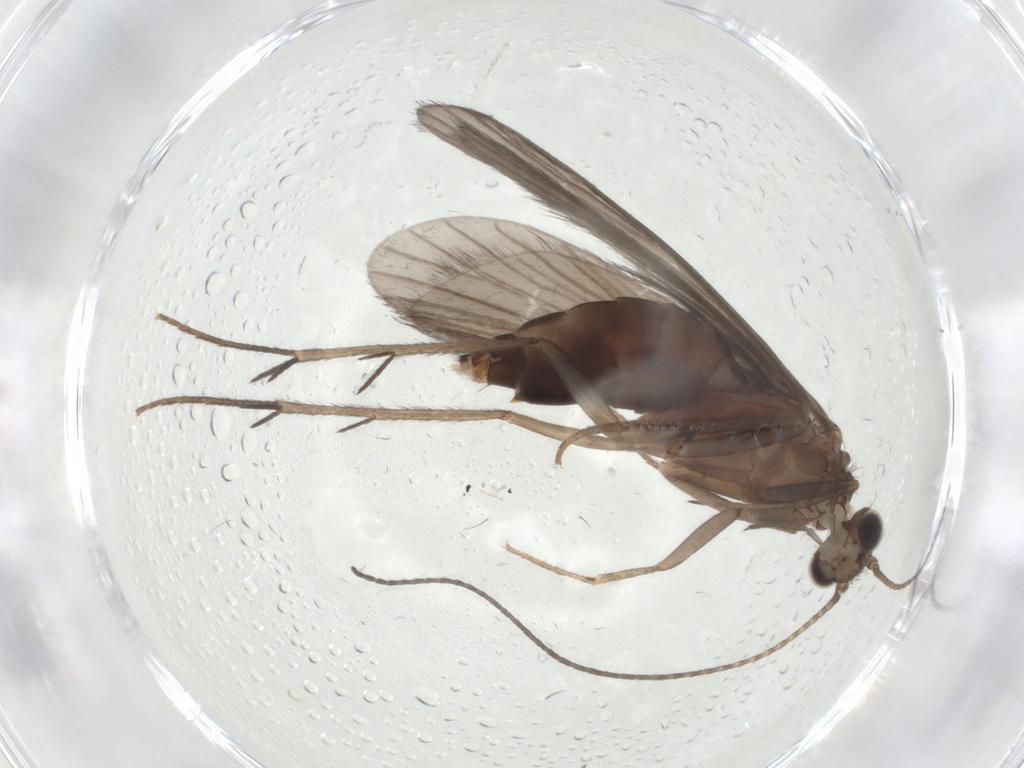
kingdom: Animalia
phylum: Arthropoda
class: Insecta
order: Trichoptera
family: Philopotamidae
